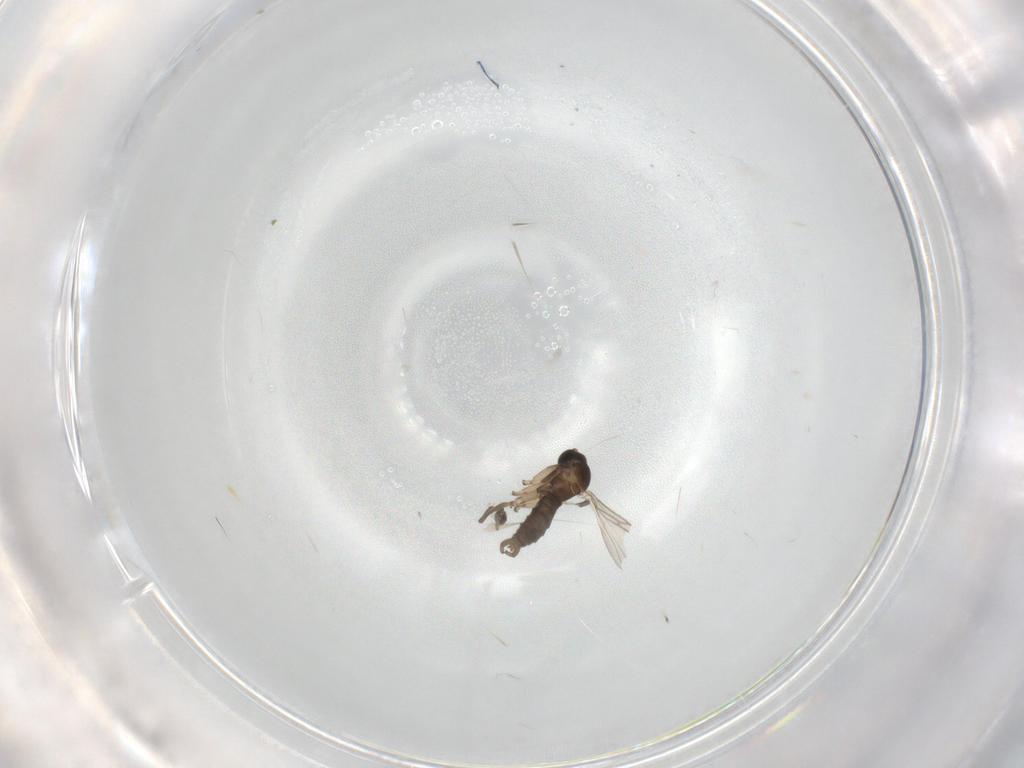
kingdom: Animalia
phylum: Arthropoda
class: Insecta
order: Diptera
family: Sciaridae
